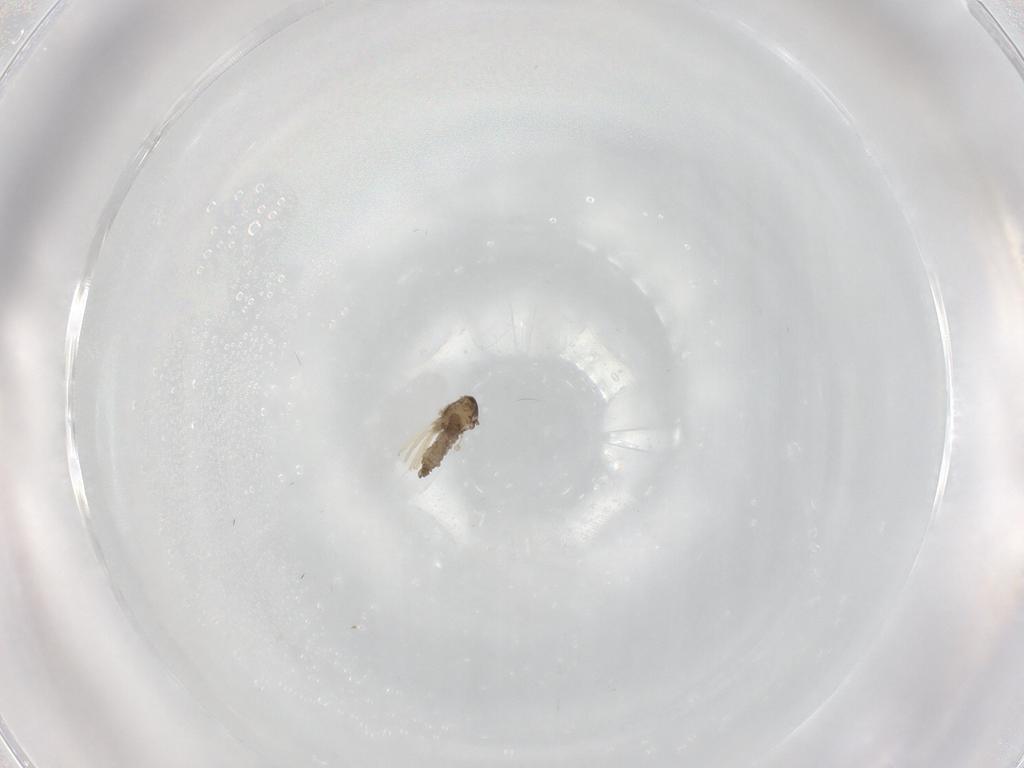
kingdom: Animalia
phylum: Arthropoda
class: Insecta
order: Diptera
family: Cecidomyiidae
